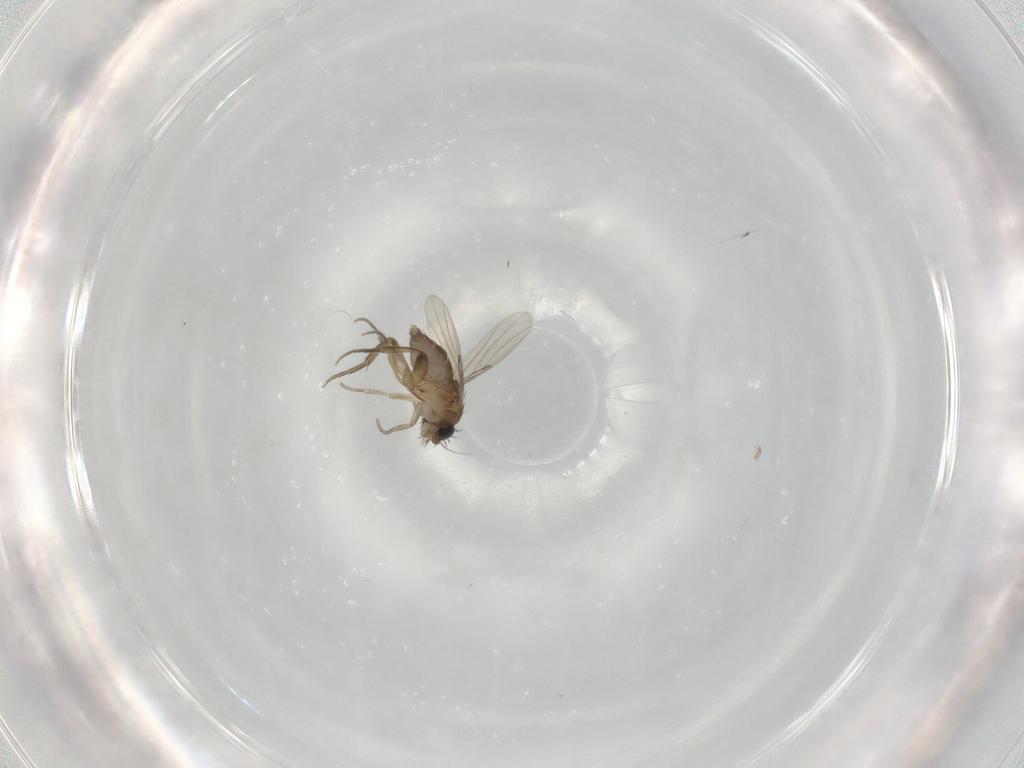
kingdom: Animalia
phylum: Arthropoda
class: Insecta
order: Diptera
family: Phoridae
